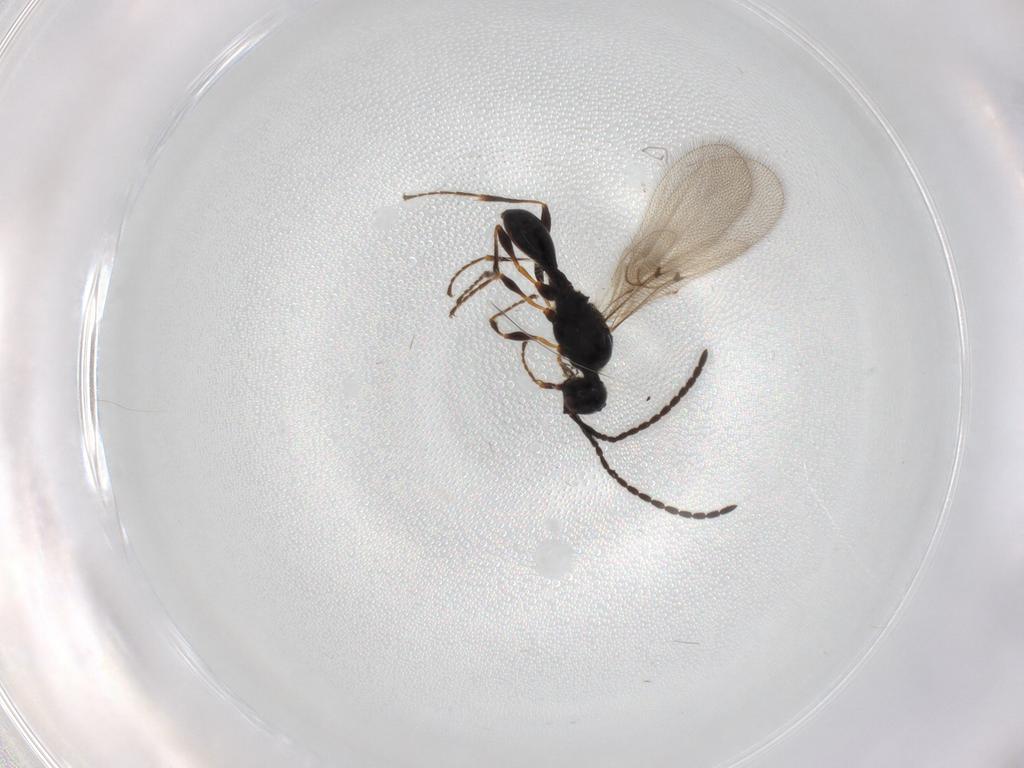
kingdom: Animalia
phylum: Arthropoda
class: Insecta
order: Hymenoptera
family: Diapriidae
